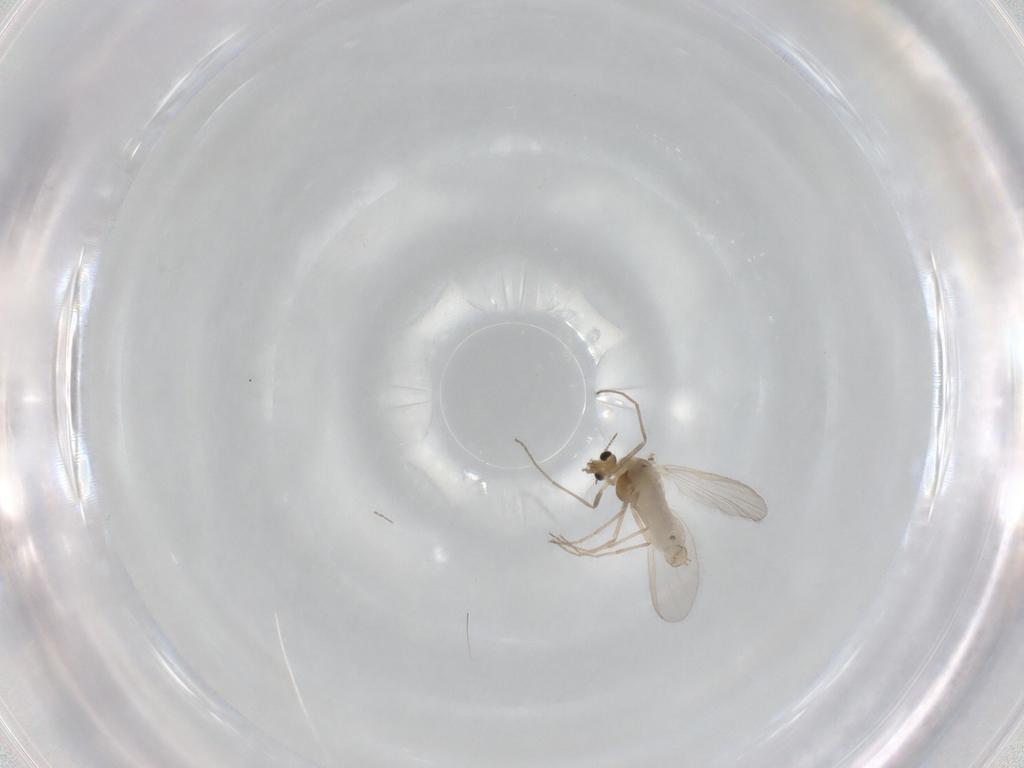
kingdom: Animalia
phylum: Arthropoda
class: Insecta
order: Diptera
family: Chironomidae
